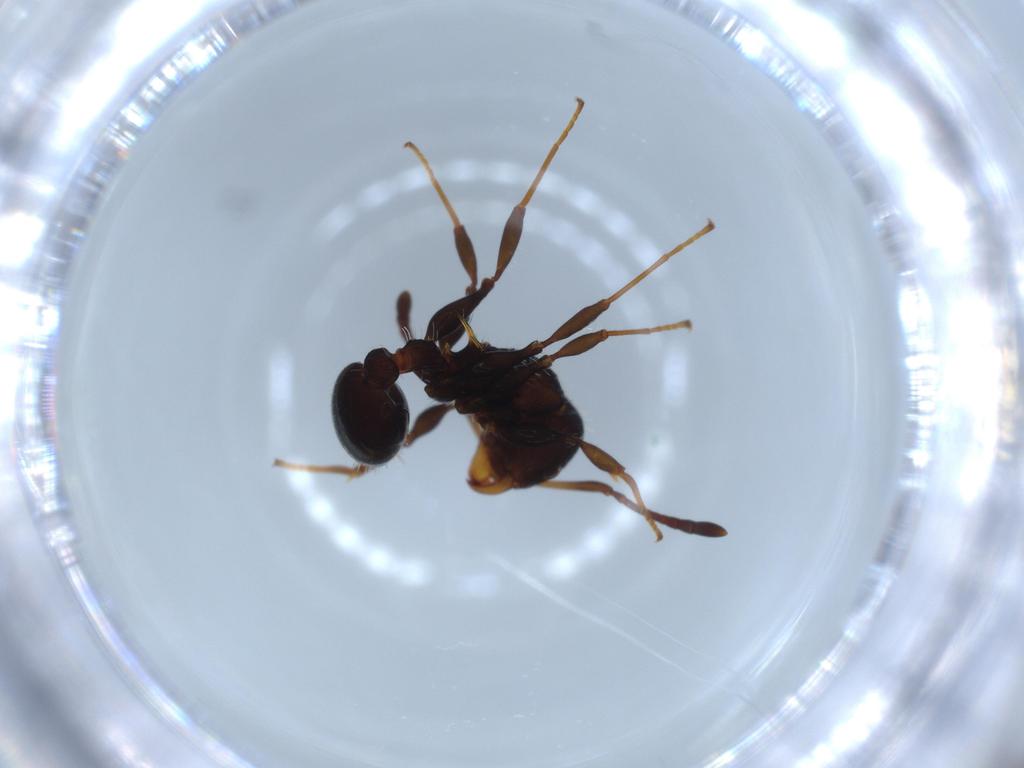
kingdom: Animalia
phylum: Arthropoda
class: Insecta
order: Hymenoptera
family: Formicidae
